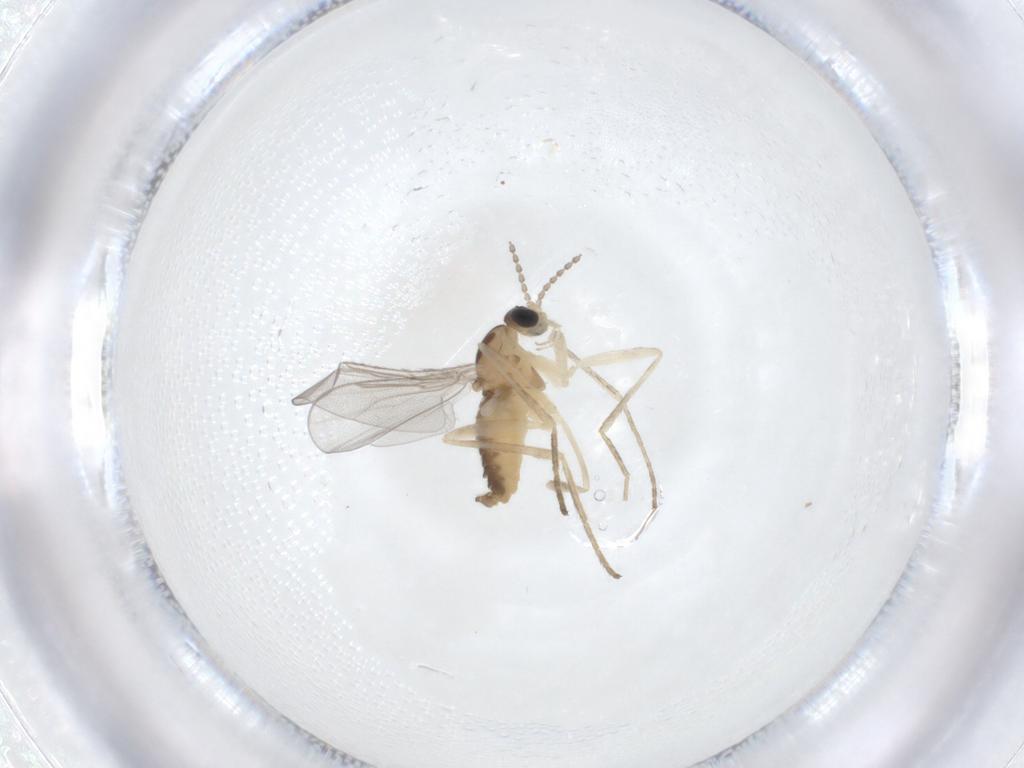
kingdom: Animalia
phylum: Arthropoda
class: Insecta
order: Diptera
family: Cecidomyiidae
